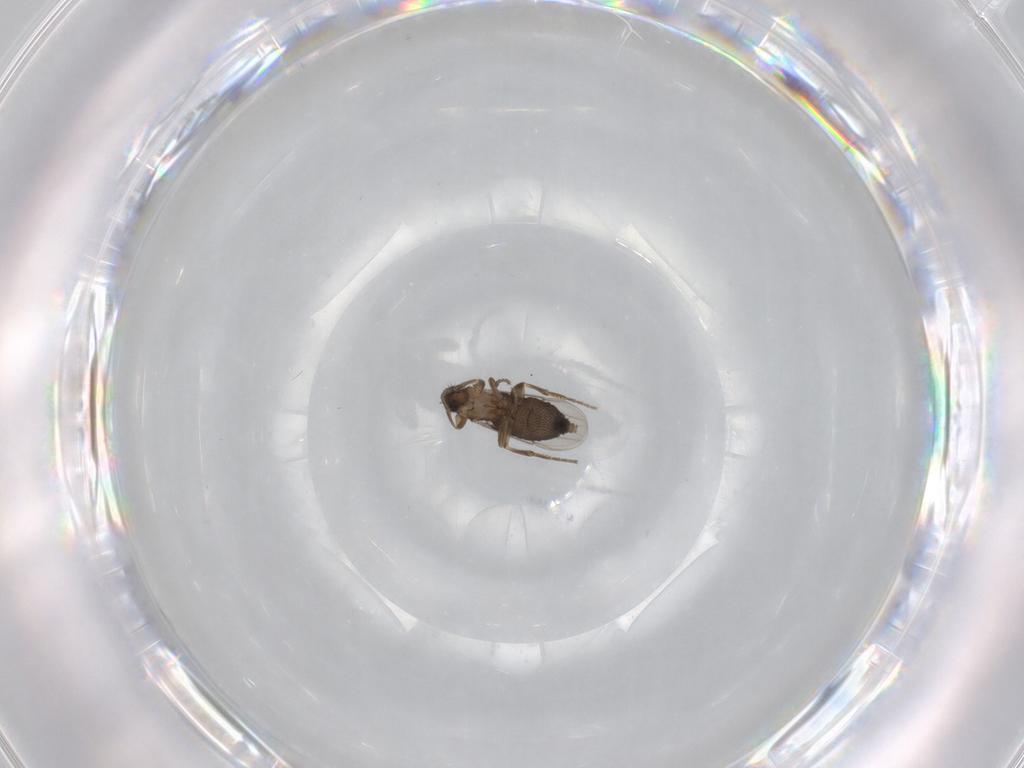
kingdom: Animalia
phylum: Arthropoda
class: Insecta
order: Diptera
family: Phoridae
